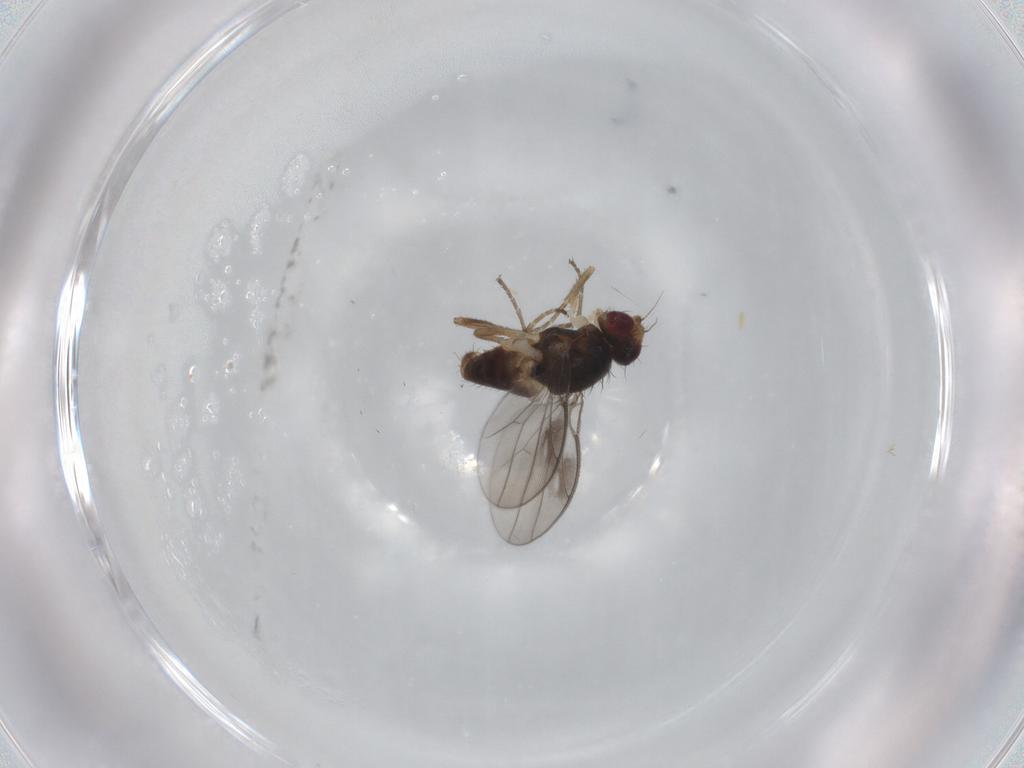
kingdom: Animalia
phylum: Arthropoda
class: Insecta
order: Diptera
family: Chloropidae
